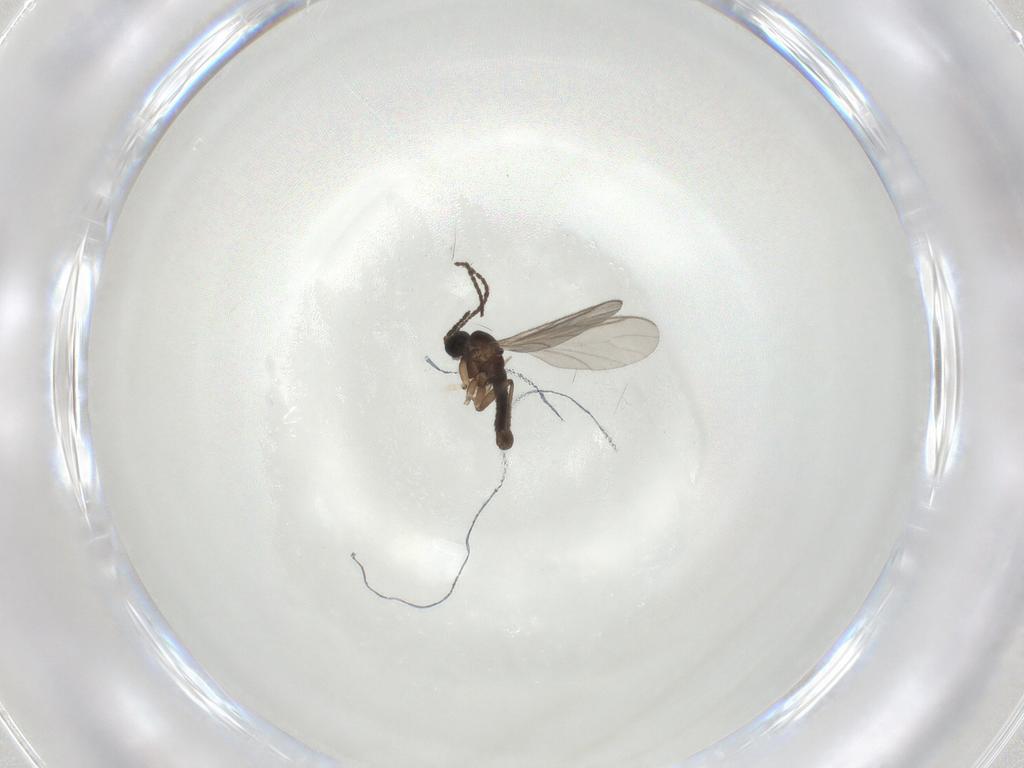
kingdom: Animalia
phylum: Arthropoda
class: Insecta
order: Diptera
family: Sciaridae
